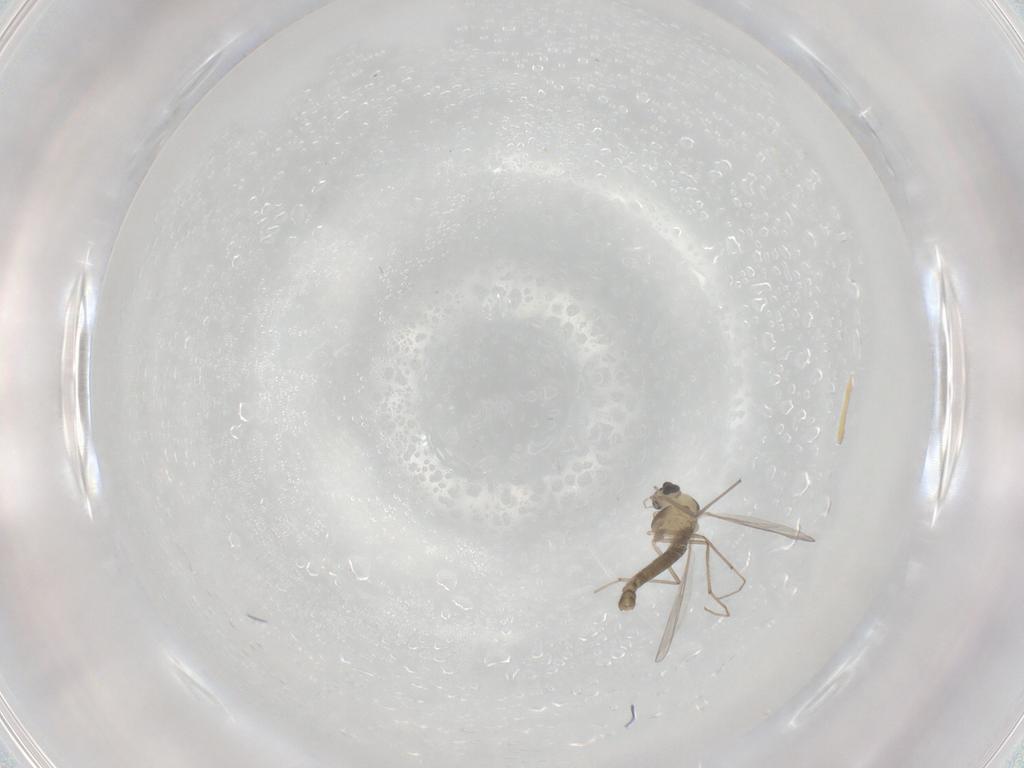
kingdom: Animalia
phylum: Arthropoda
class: Insecta
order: Diptera
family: Chironomidae
